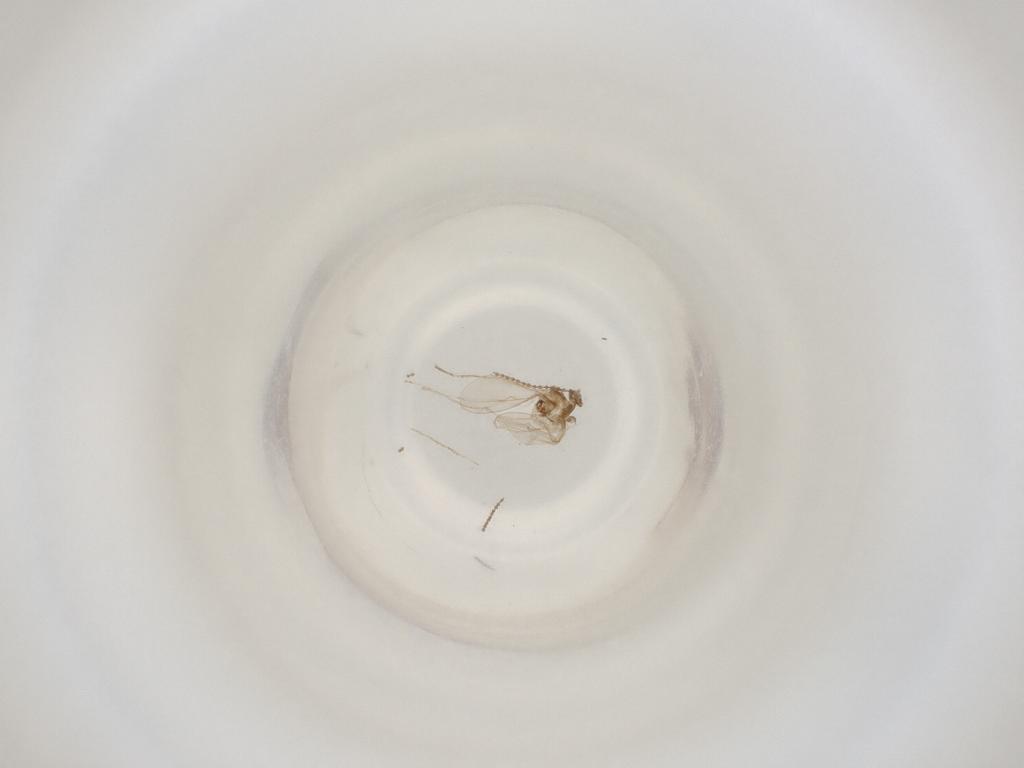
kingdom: Animalia
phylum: Arthropoda
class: Insecta
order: Diptera
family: Cecidomyiidae
